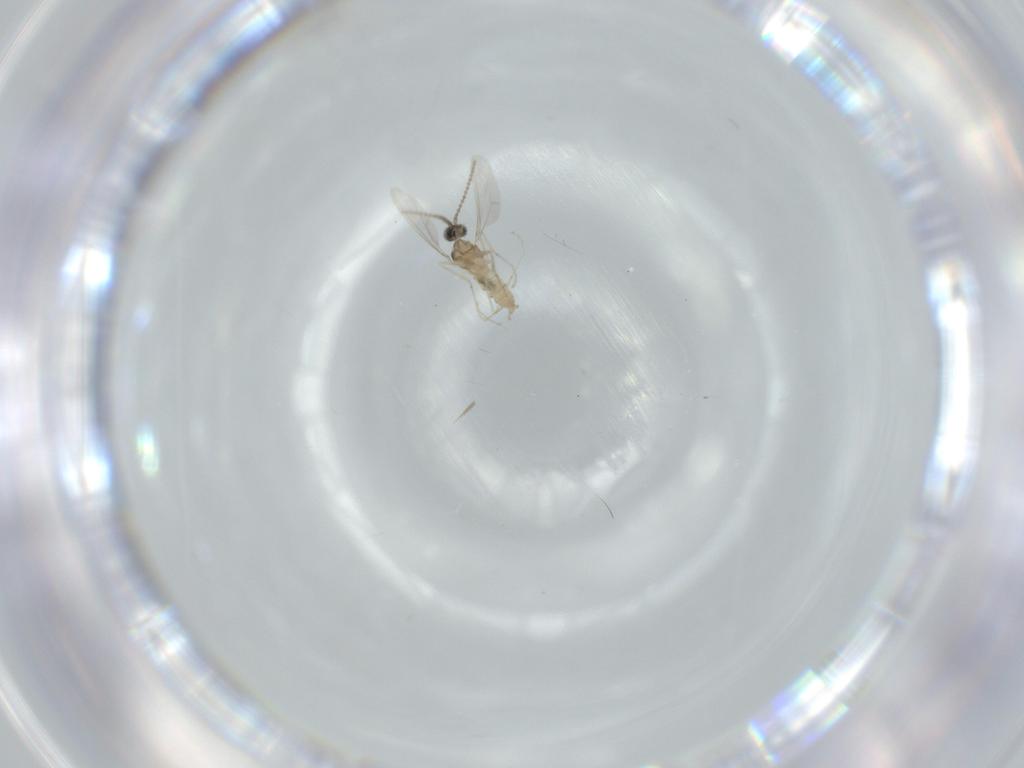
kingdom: Animalia
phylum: Arthropoda
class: Insecta
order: Diptera
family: Cecidomyiidae
